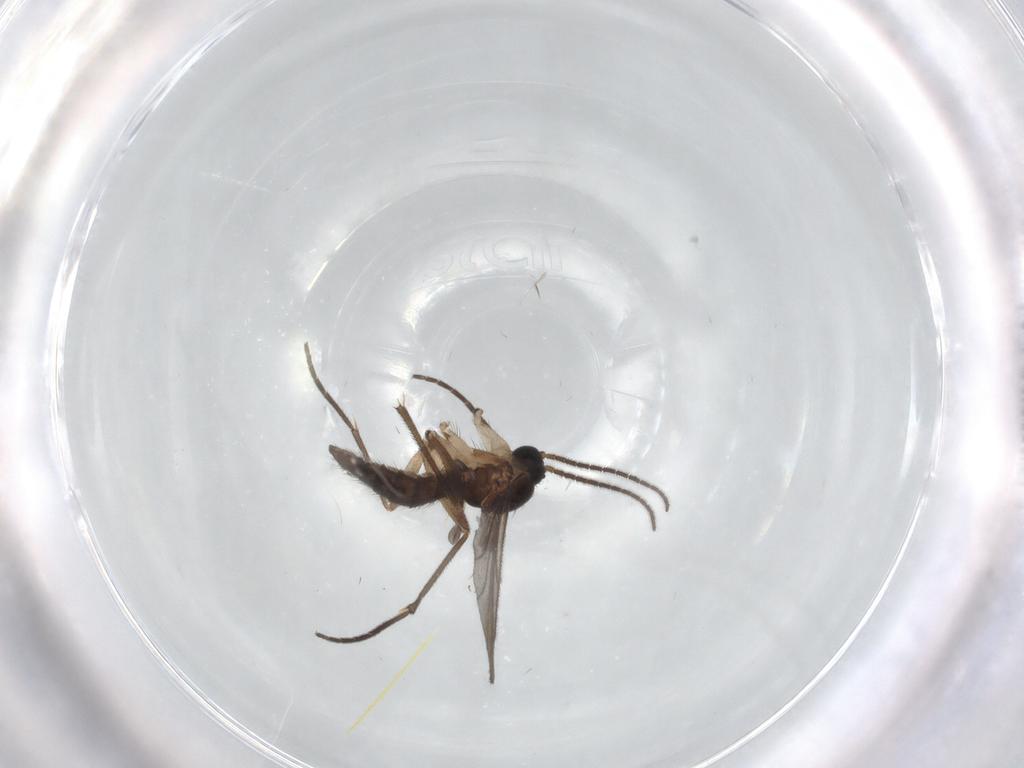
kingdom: Animalia
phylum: Arthropoda
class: Insecta
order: Diptera
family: Sciaridae
